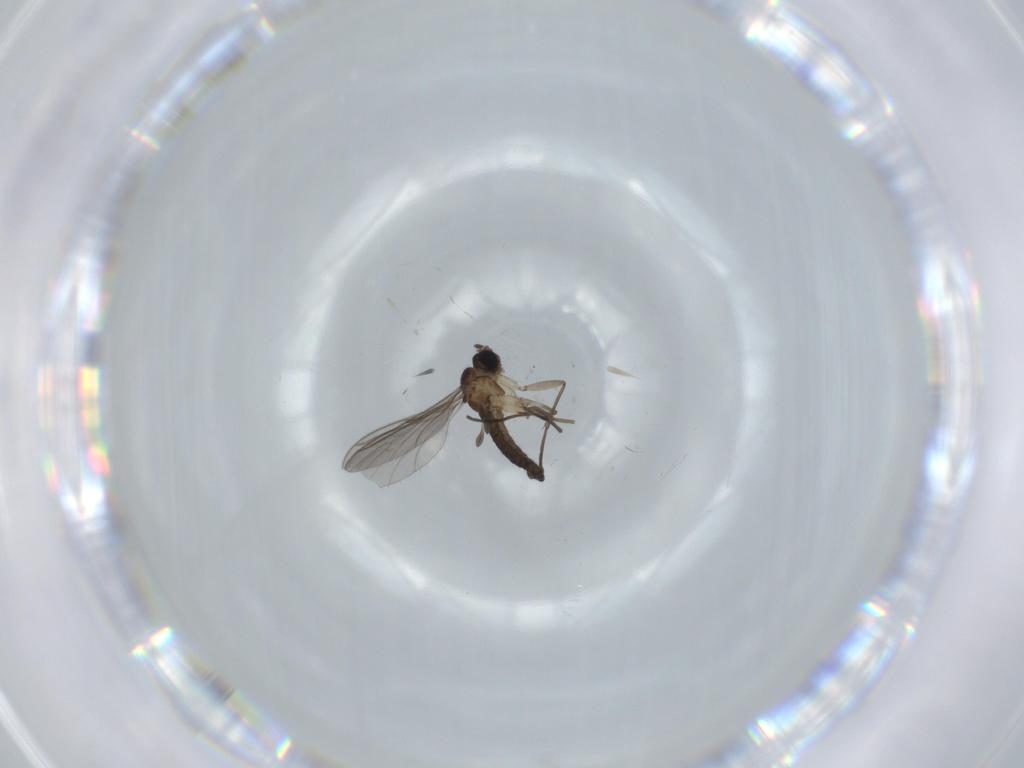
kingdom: Animalia
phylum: Arthropoda
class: Insecta
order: Diptera
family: Sciaridae
